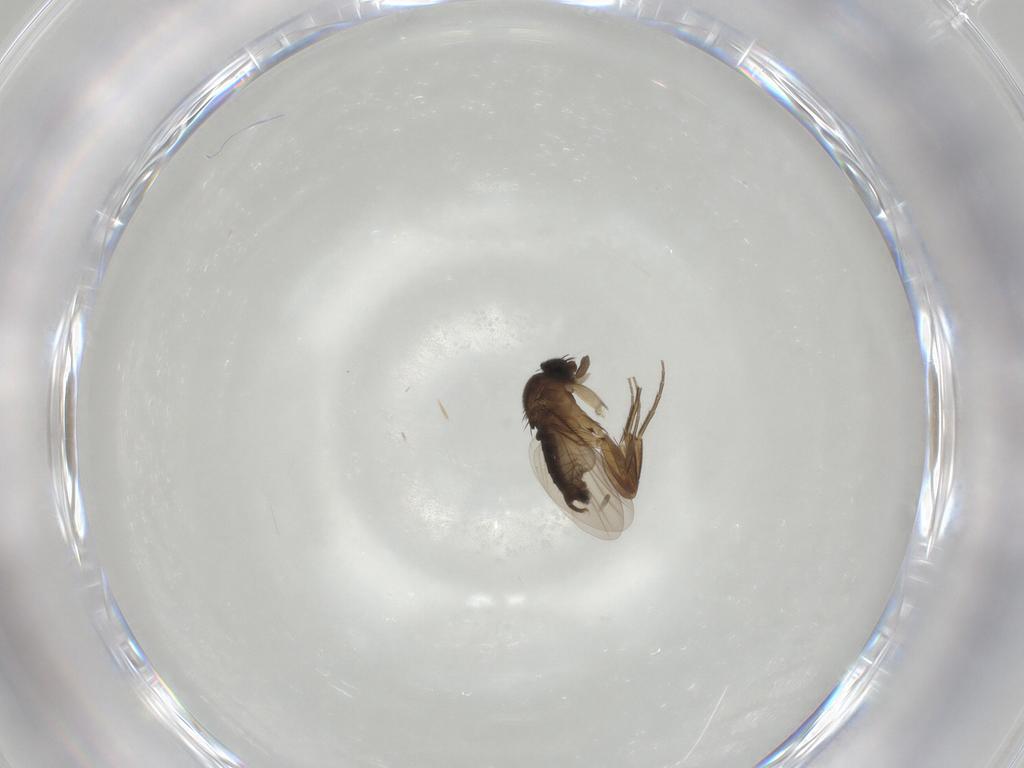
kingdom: Animalia
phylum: Arthropoda
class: Insecta
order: Diptera
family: Phoridae
